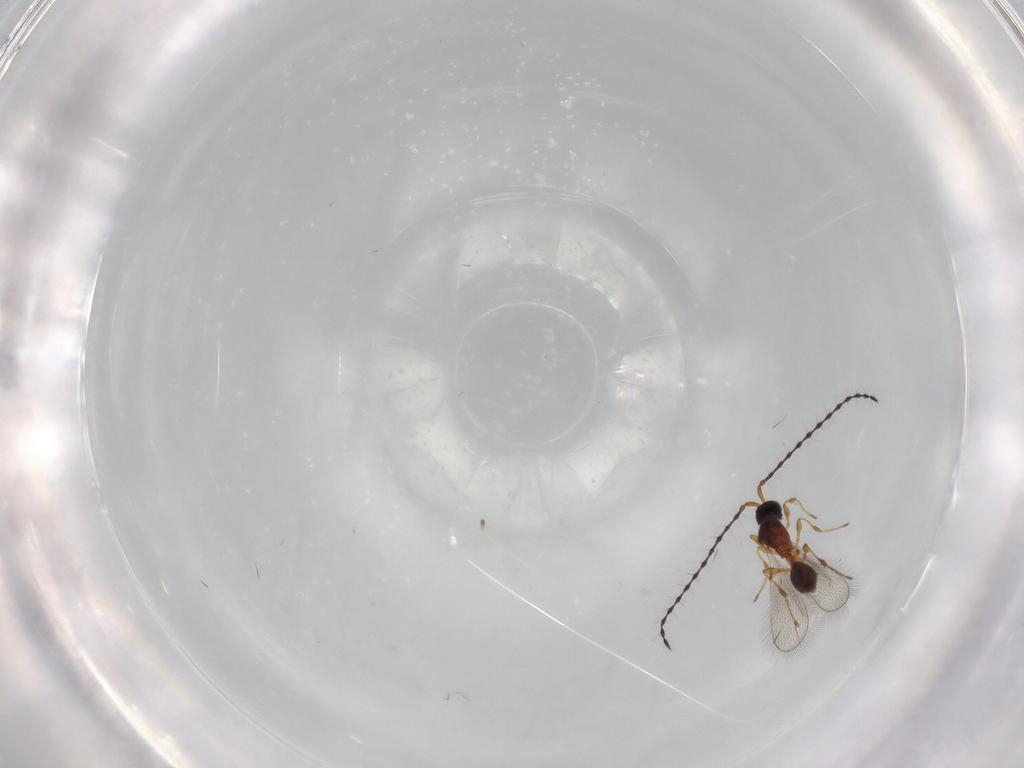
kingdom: Animalia
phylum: Arthropoda
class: Insecta
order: Hymenoptera
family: Diapriidae
